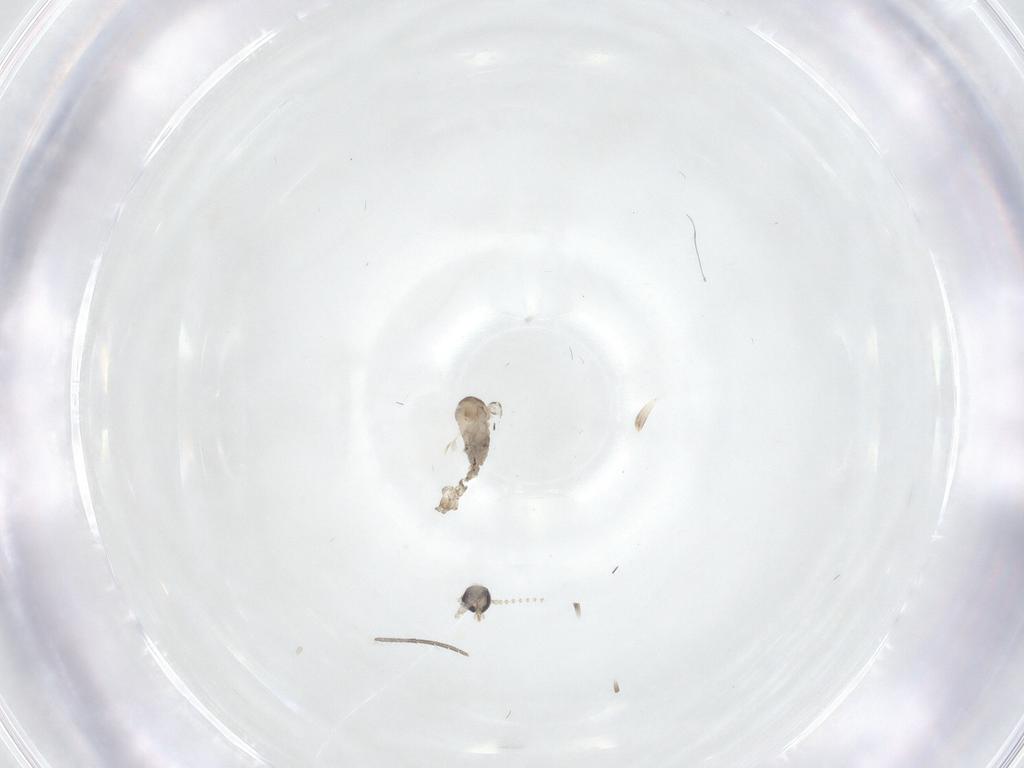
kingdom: Animalia
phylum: Arthropoda
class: Insecta
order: Diptera
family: Psychodidae
